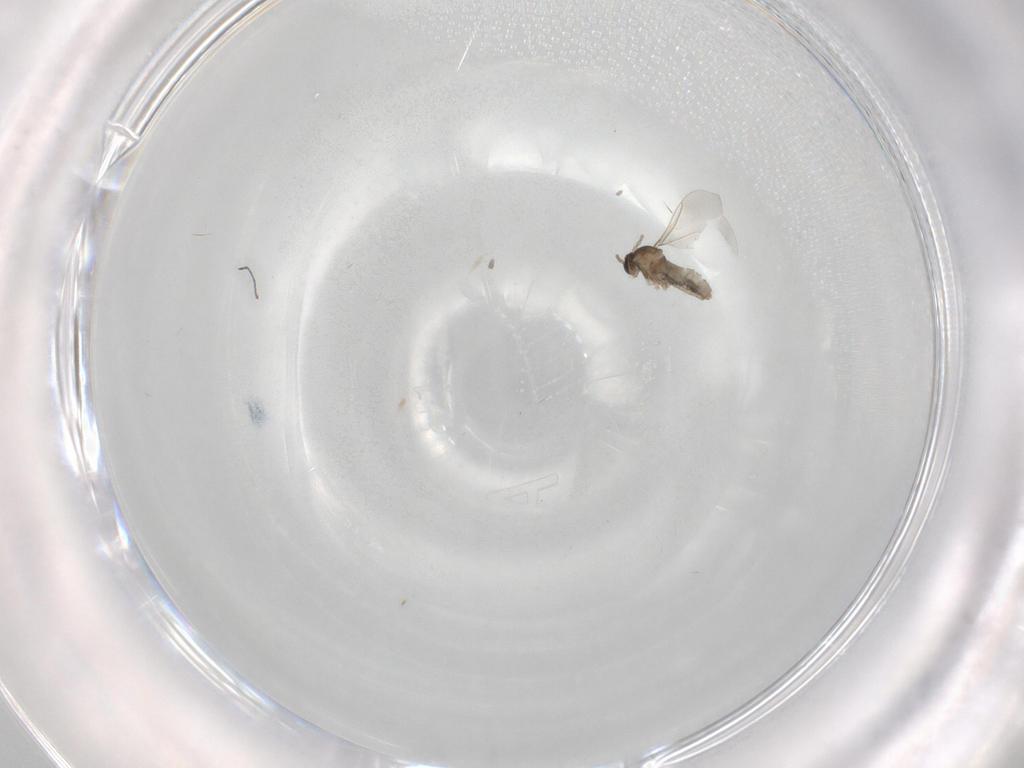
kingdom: Animalia
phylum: Arthropoda
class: Insecta
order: Diptera
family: Cecidomyiidae
